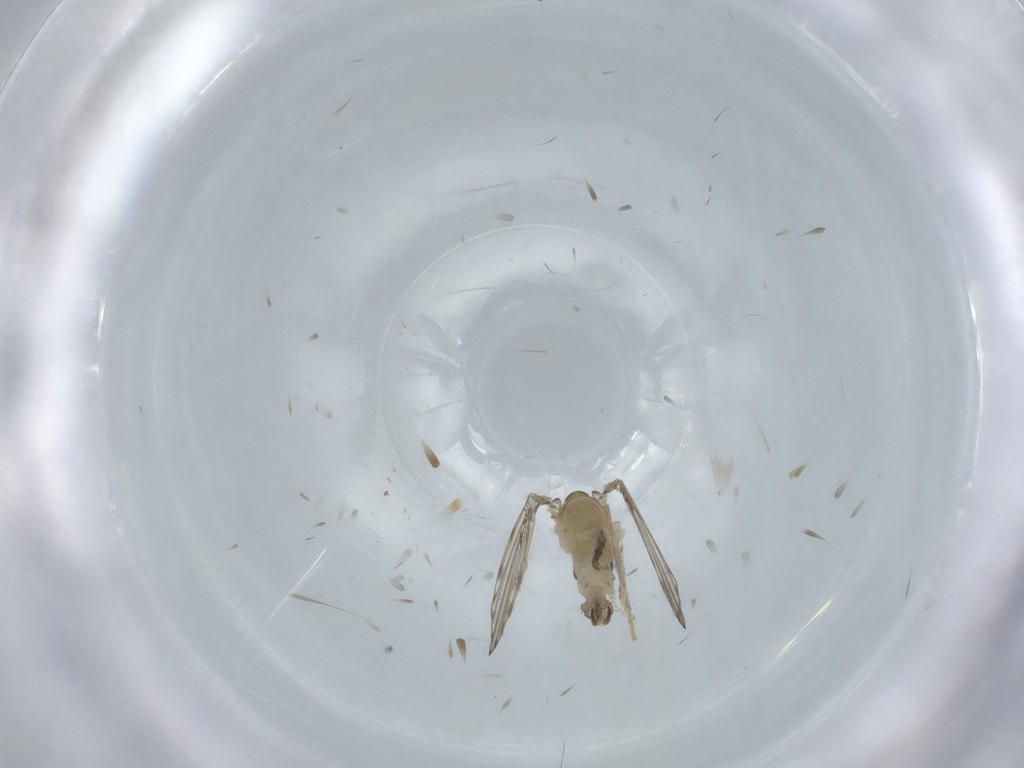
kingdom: Animalia
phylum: Arthropoda
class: Insecta
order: Diptera
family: Psychodidae
